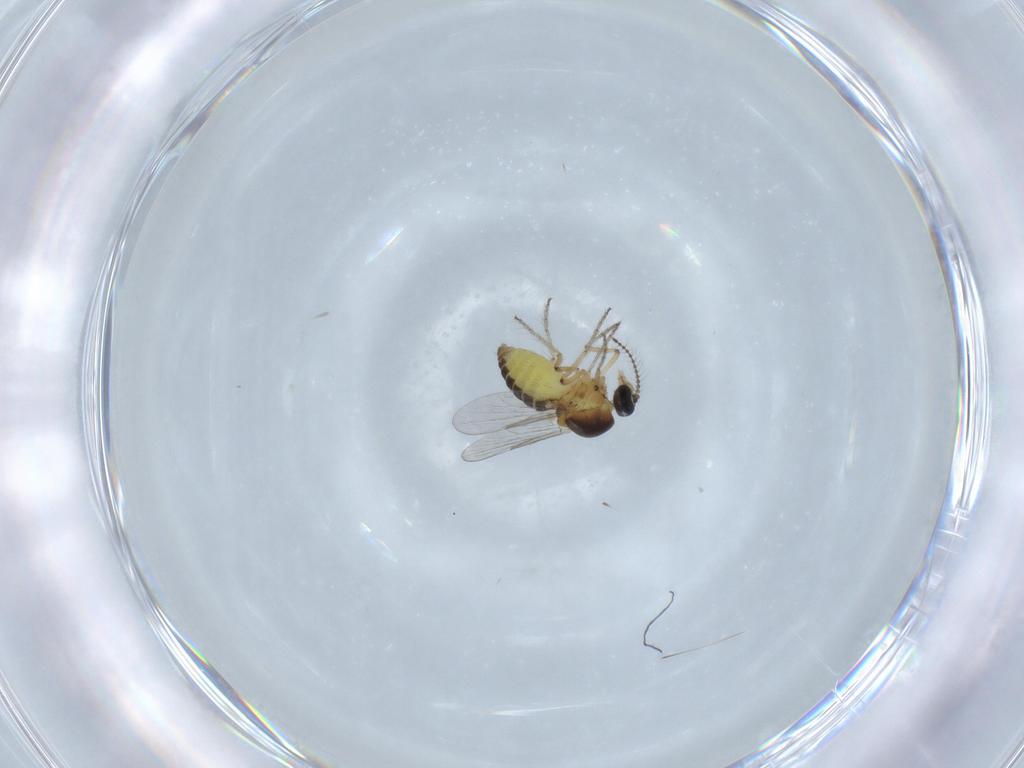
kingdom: Animalia
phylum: Arthropoda
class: Insecta
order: Diptera
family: Ceratopogonidae
